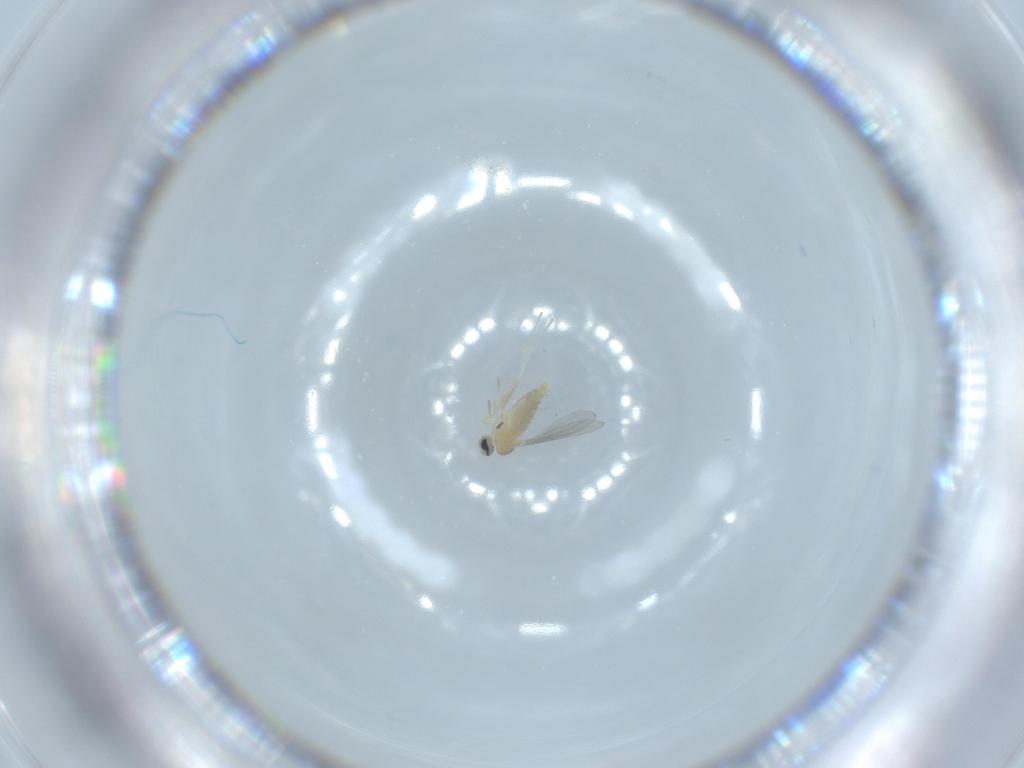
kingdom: Animalia
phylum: Arthropoda
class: Insecta
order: Diptera
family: Cecidomyiidae
